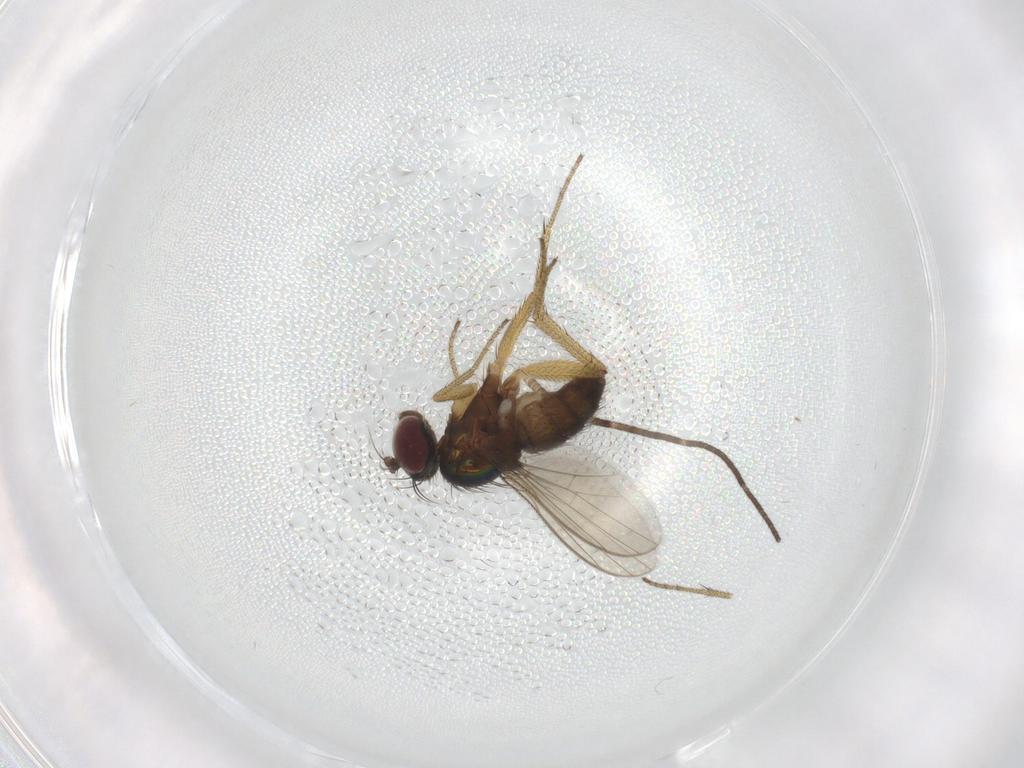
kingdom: Animalia
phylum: Arthropoda
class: Insecta
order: Diptera
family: Dolichopodidae
